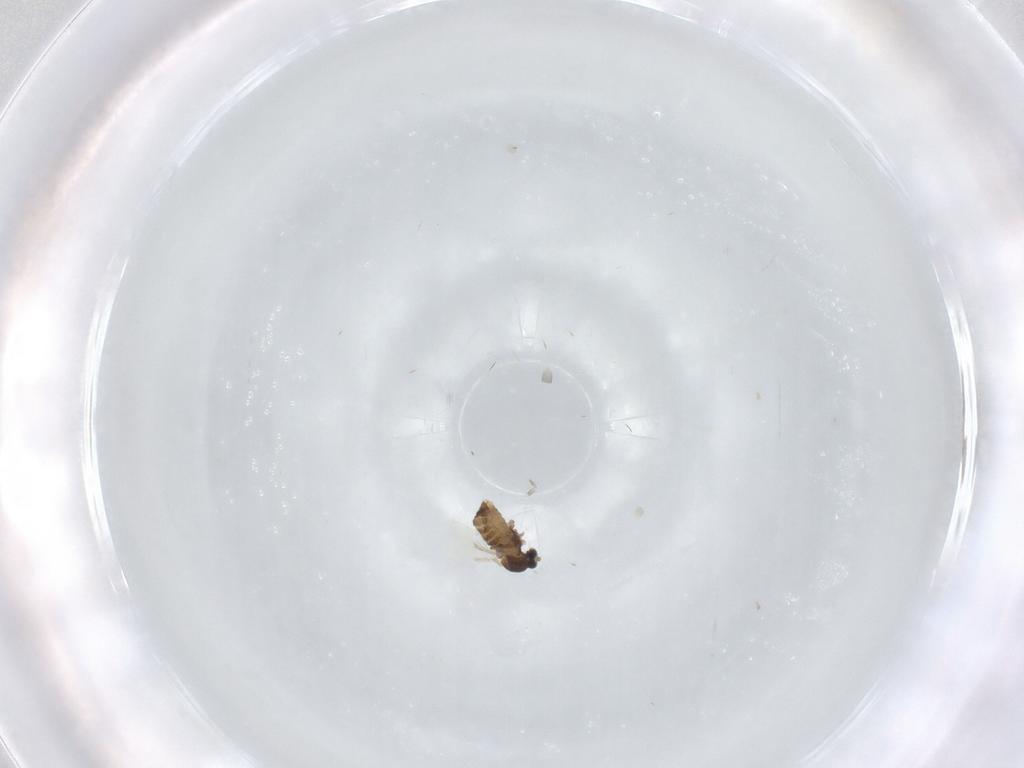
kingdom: Animalia
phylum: Arthropoda
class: Insecta
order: Diptera
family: Cecidomyiidae
